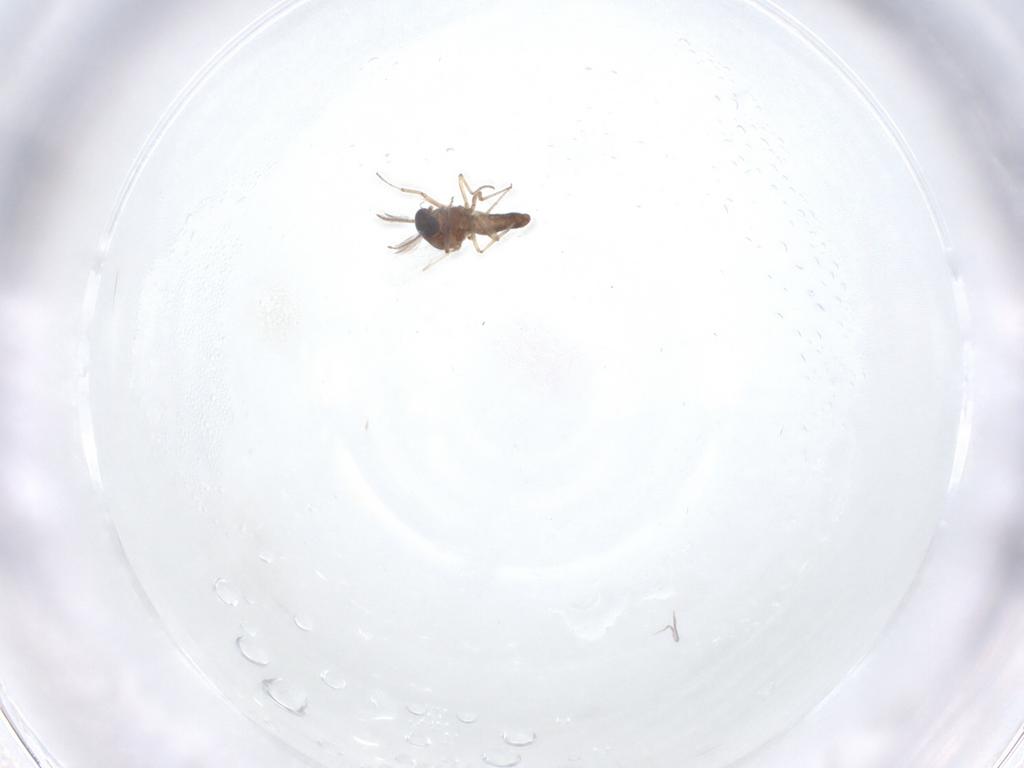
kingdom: Animalia
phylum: Arthropoda
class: Insecta
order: Diptera
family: Ceratopogonidae
